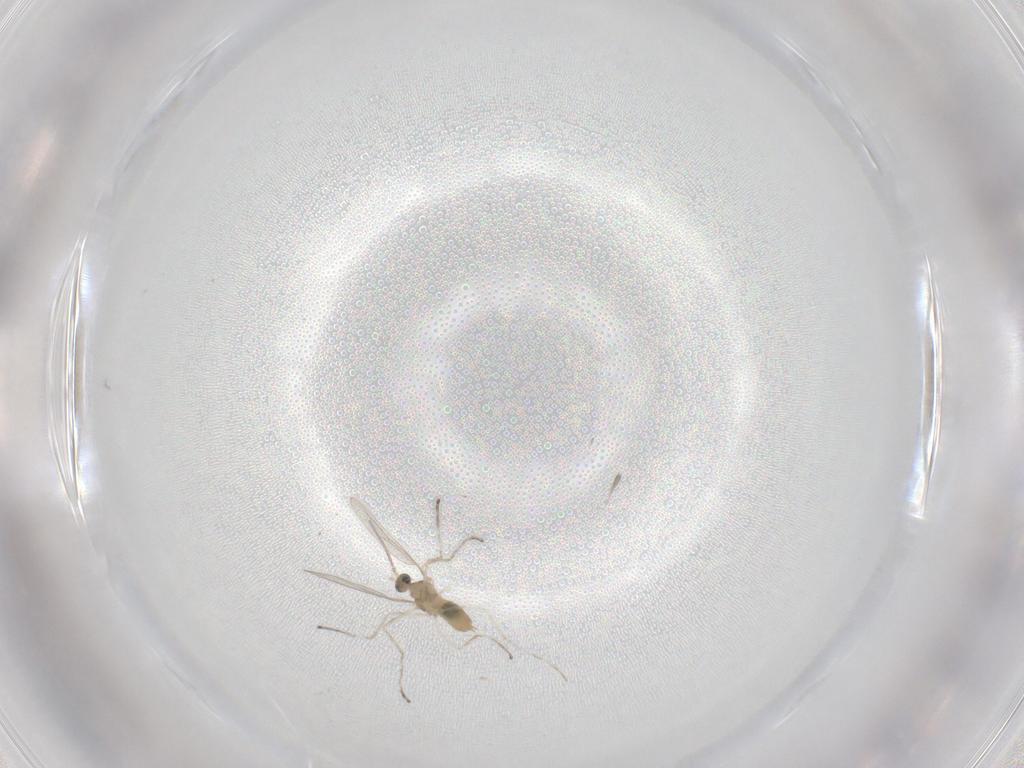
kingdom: Animalia
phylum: Arthropoda
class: Insecta
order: Diptera
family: Cecidomyiidae
